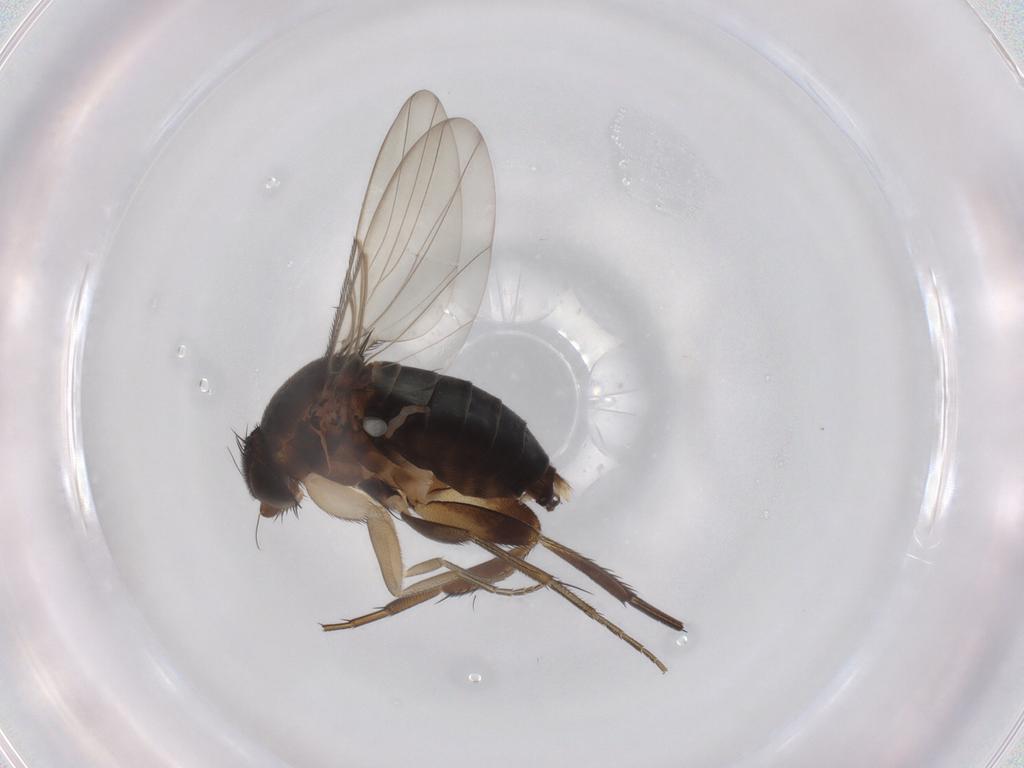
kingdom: Animalia
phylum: Arthropoda
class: Insecta
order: Diptera
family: Phoridae
